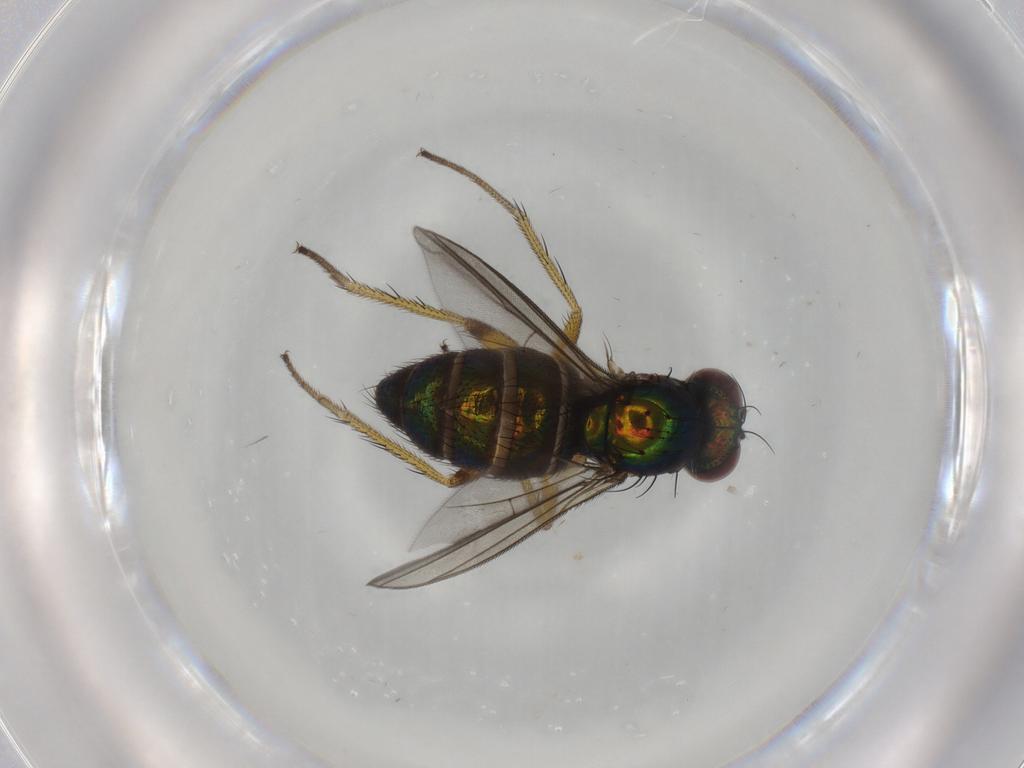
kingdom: Animalia
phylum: Arthropoda
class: Insecta
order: Diptera
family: Dolichopodidae
